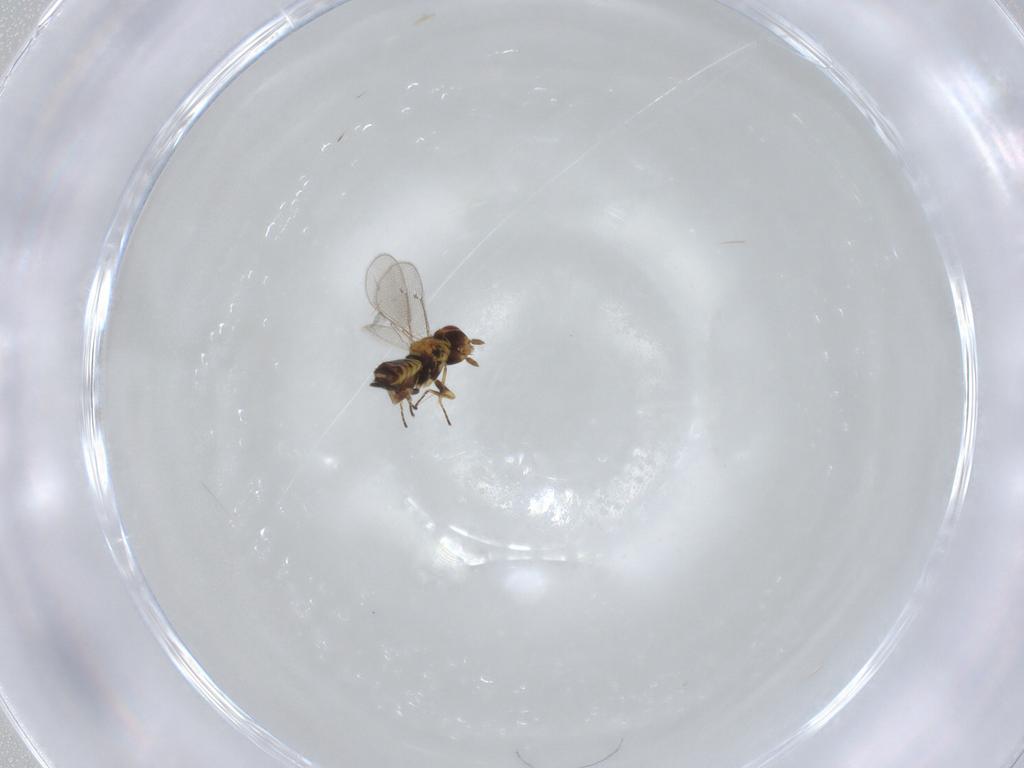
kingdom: Animalia
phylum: Arthropoda
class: Insecta
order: Hymenoptera
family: Eulophidae
